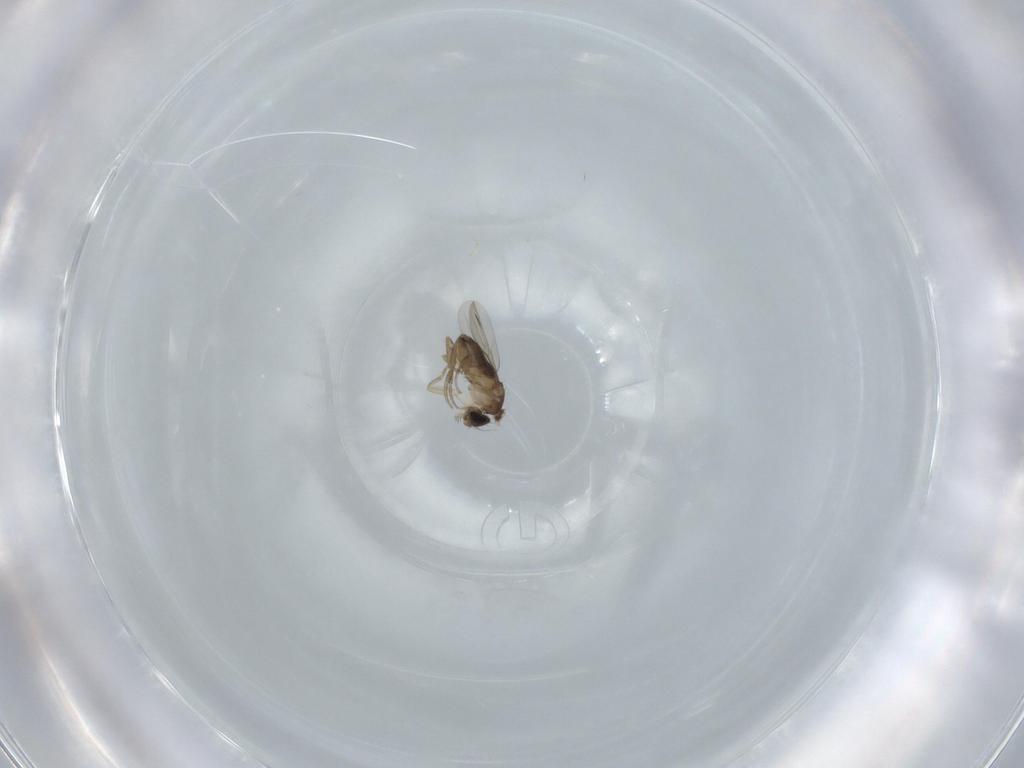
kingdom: Animalia
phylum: Arthropoda
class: Insecta
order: Diptera
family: Phoridae
